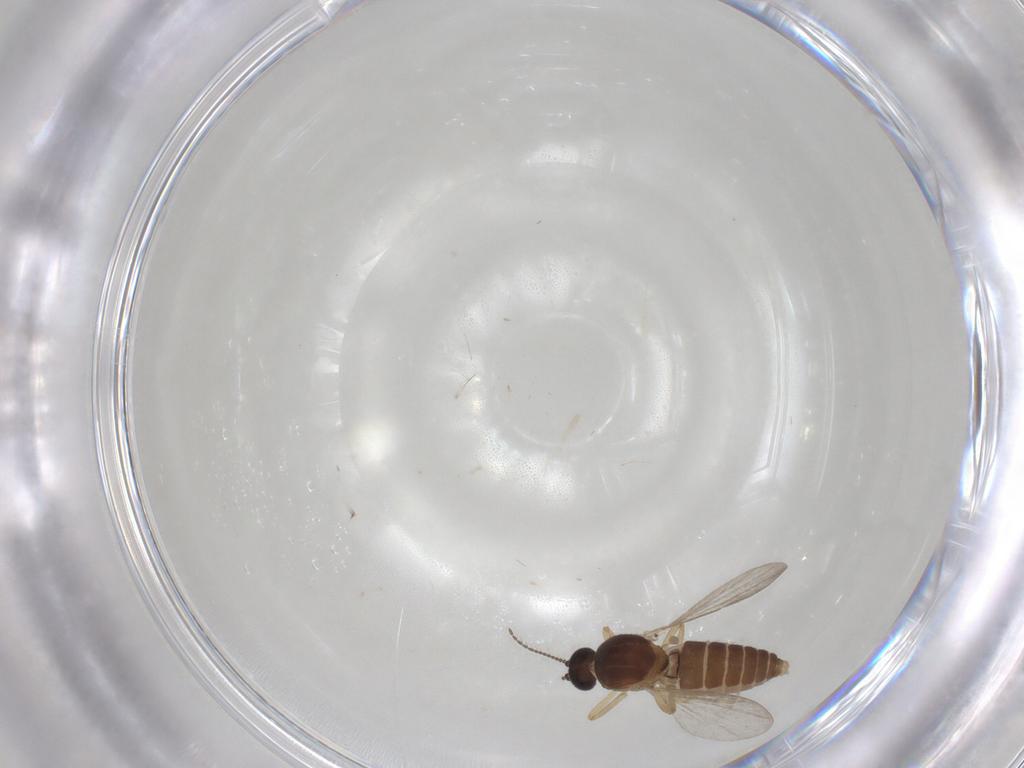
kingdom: Animalia
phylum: Arthropoda
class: Insecta
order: Diptera
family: Ceratopogonidae
